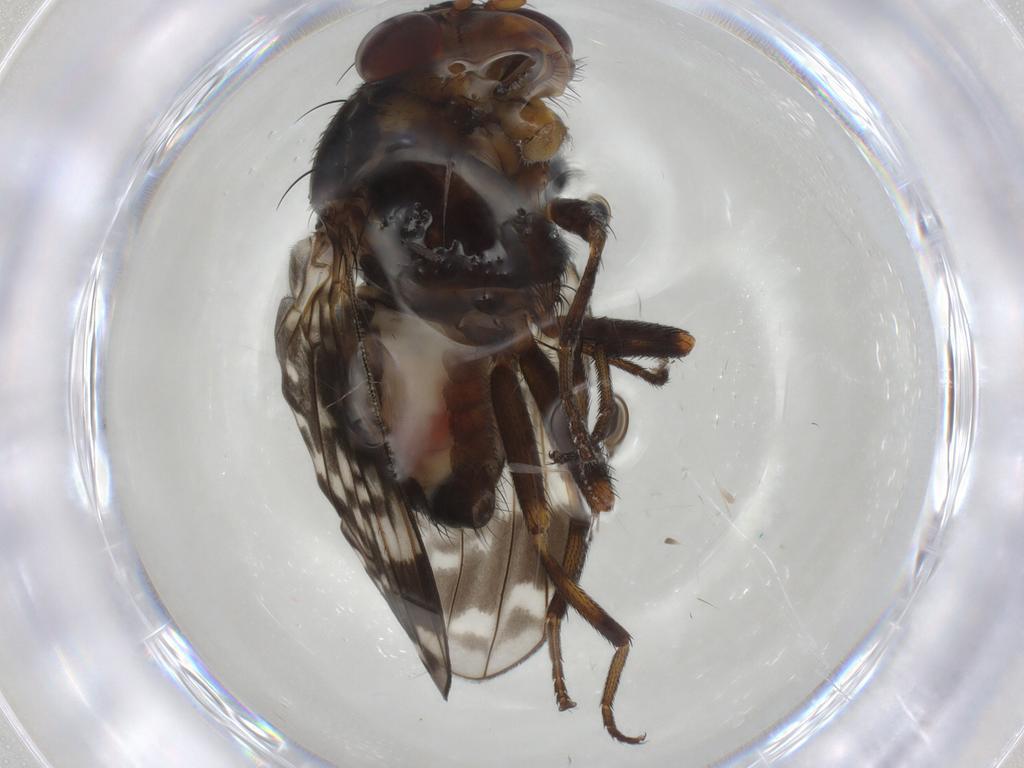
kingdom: Animalia
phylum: Arthropoda
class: Insecta
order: Diptera
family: Lauxaniidae
